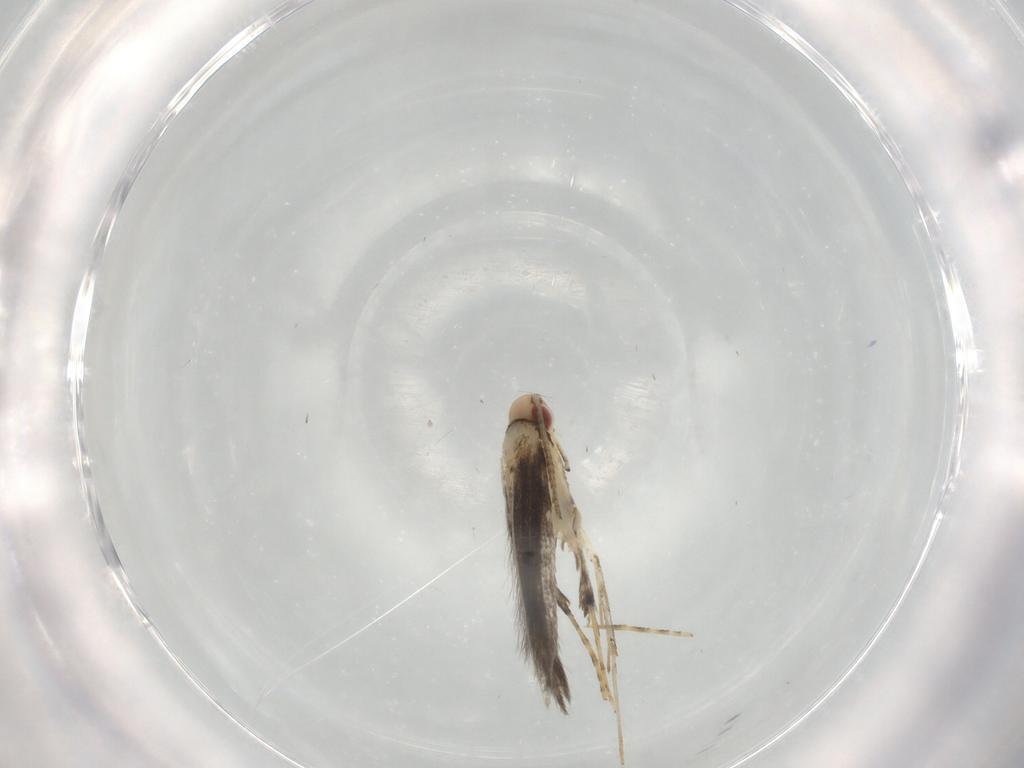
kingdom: Animalia
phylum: Arthropoda
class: Insecta
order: Lepidoptera
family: Gracillariidae
